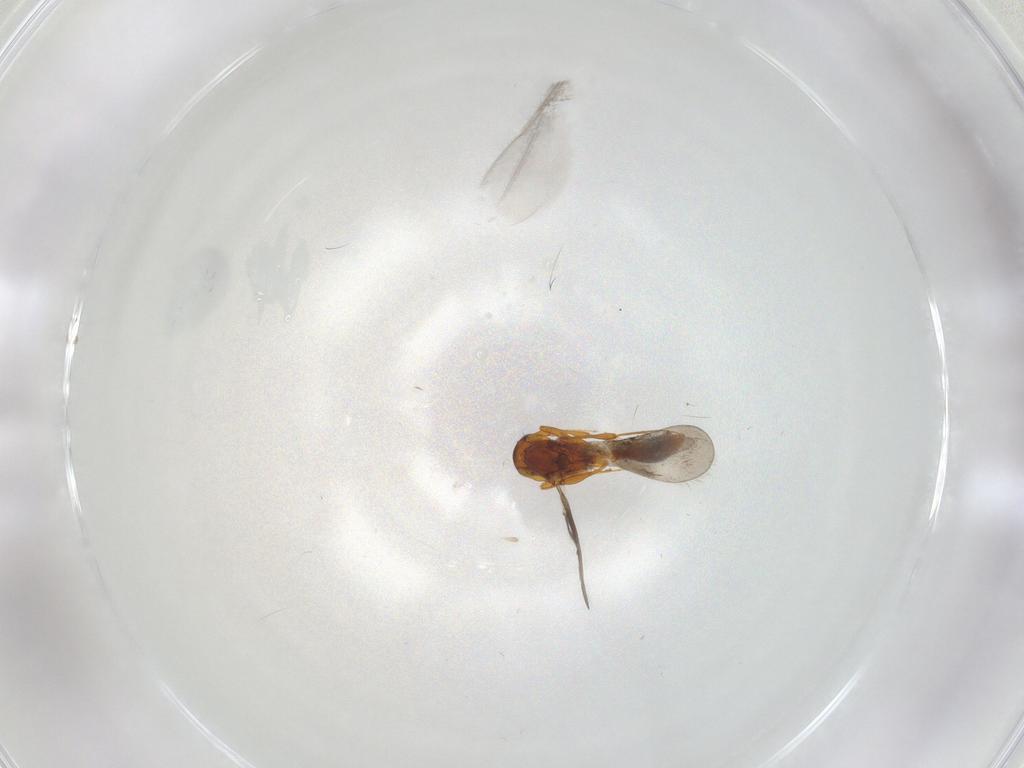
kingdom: Animalia
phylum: Arthropoda
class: Insecta
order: Hymenoptera
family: Platygastridae
